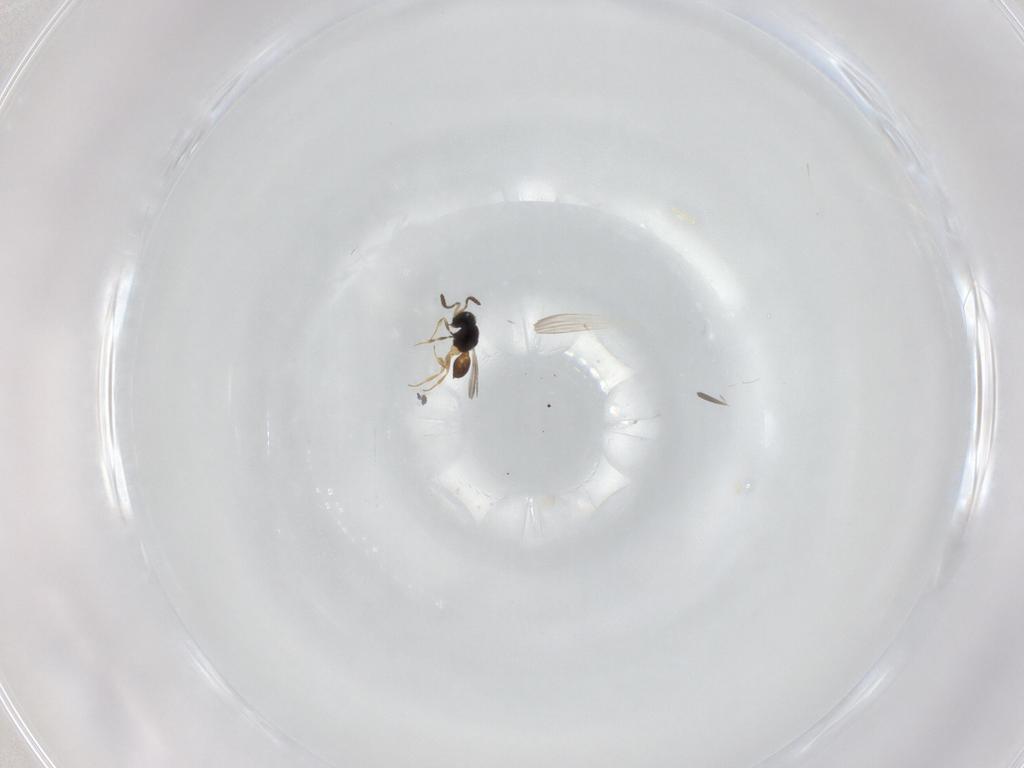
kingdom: Animalia
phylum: Arthropoda
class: Insecta
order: Hymenoptera
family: Scelionidae
